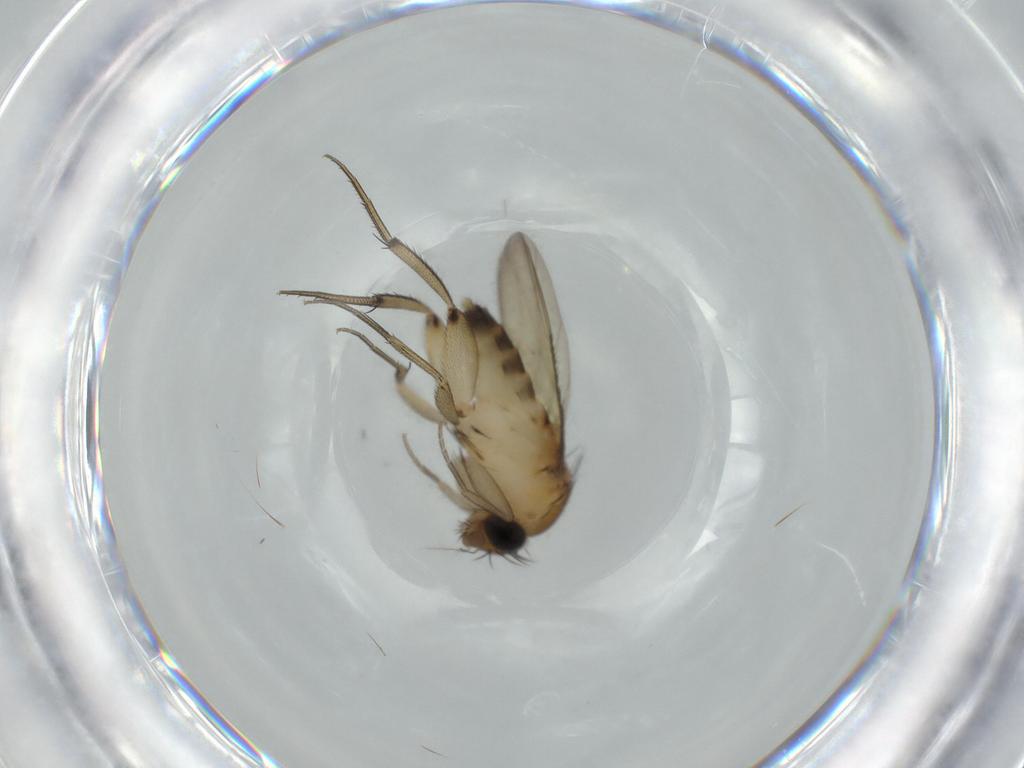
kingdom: Animalia
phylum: Arthropoda
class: Insecta
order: Diptera
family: Phoridae
